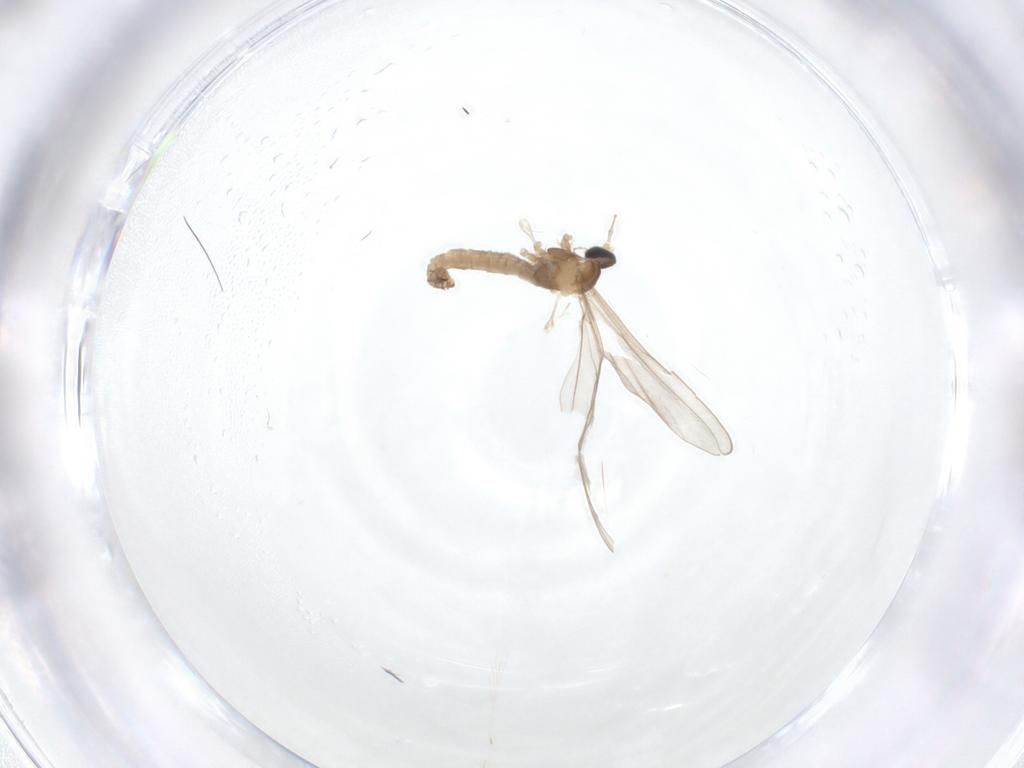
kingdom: Animalia
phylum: Arthropoda
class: Insecta
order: Diptera
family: Cecidomyiidae
